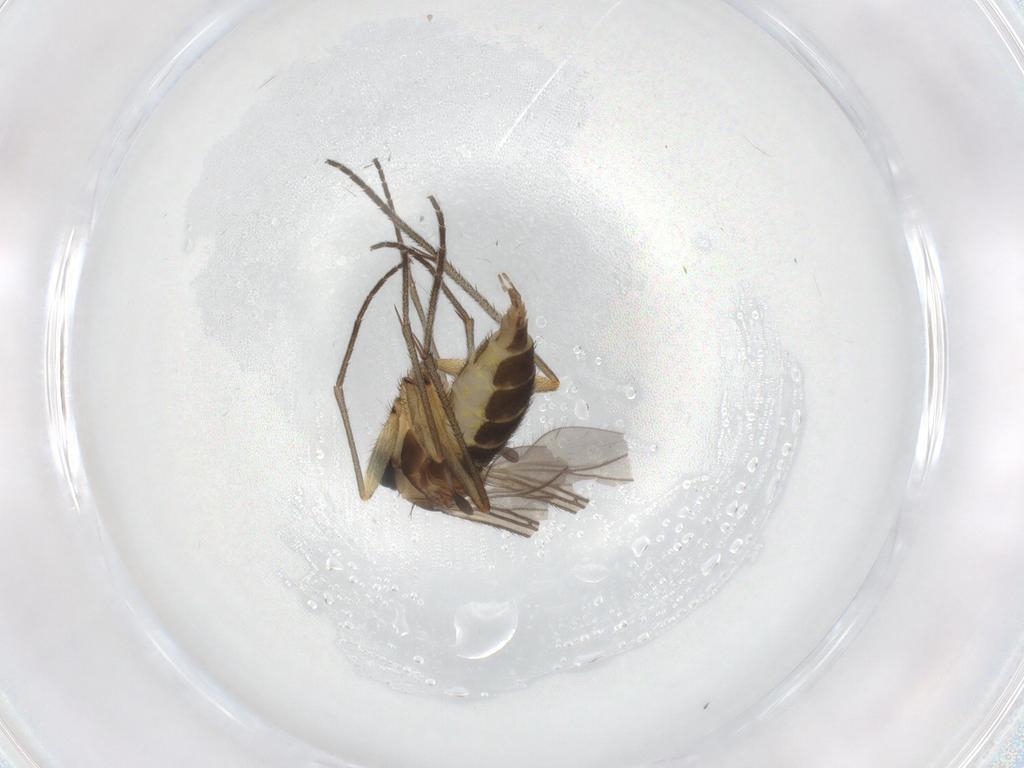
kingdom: Animalia
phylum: Arthropoda
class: Insecta
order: Diptera
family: Sciaridae
